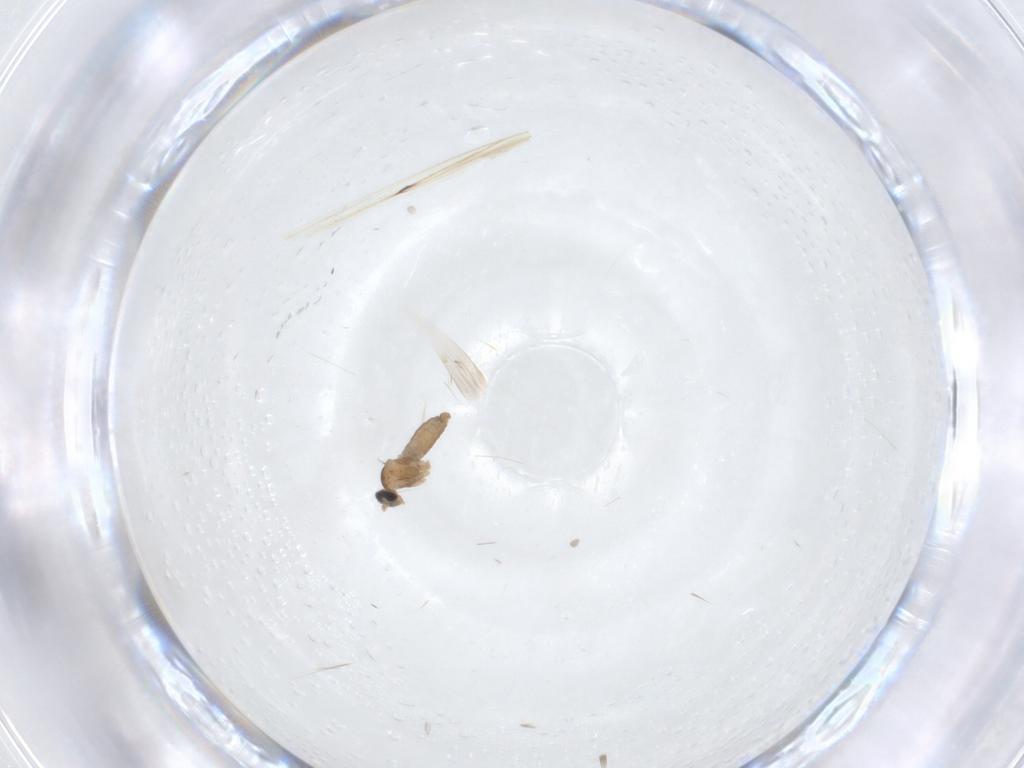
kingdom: Animalia
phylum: Arthropoda
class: Insecta
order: Diptera
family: Cecidomyiidae
